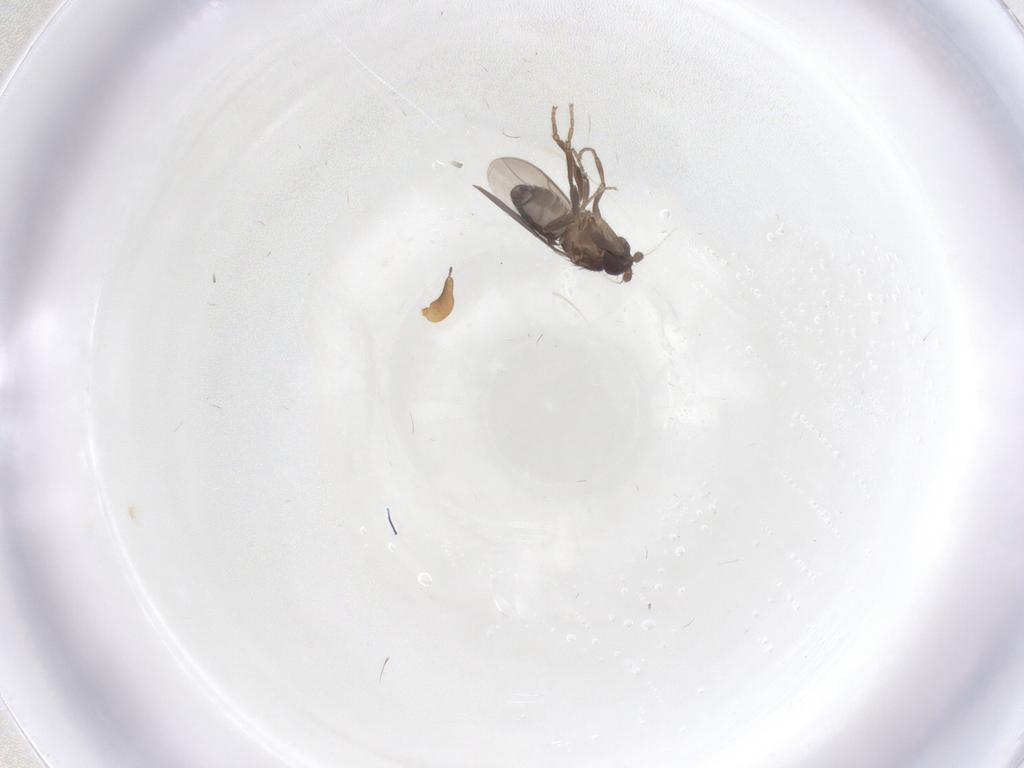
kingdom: Animalia
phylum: Arthropoda
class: Insecta
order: Diptera
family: Sphaeroceridae
